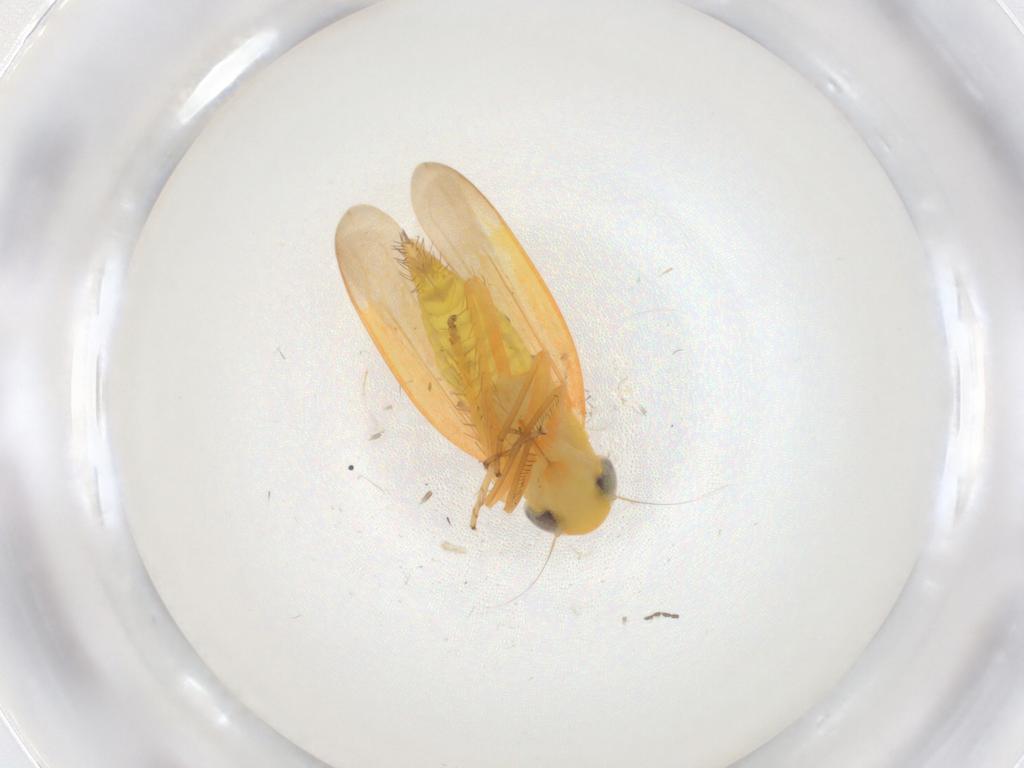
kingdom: Animalia
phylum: Arthropoda
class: Insecta
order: Hemiptera
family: Cicadellidae
